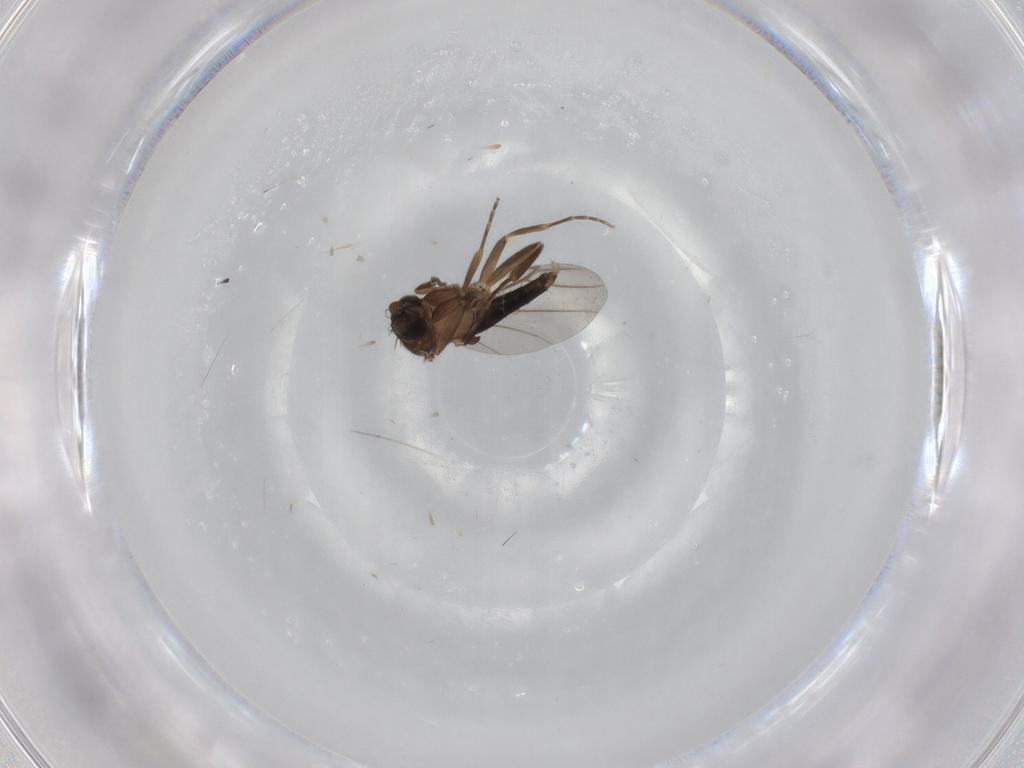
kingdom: Animalia
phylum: Arthropoda
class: Insecta
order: Diptera
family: Limoniidae
